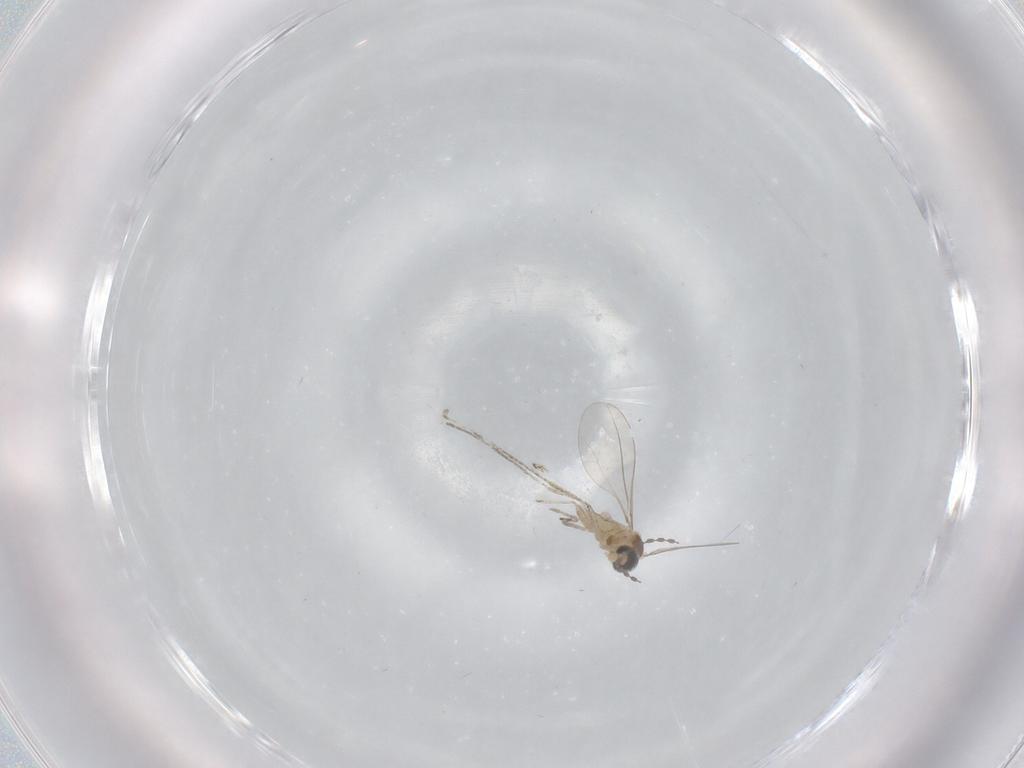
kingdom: Animalia
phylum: Arthropoda
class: Insecta
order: Diptera
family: Cecidomyiidae
